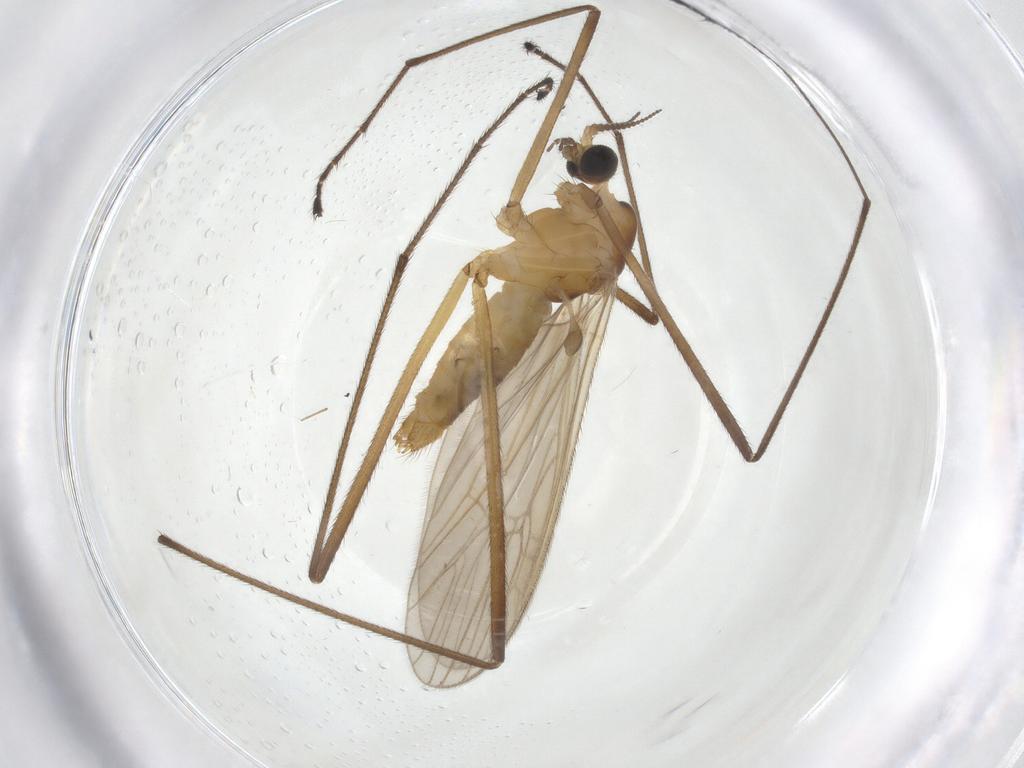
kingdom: Animalia
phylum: Arthropoda
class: Insecta
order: Diptera
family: Limoniidae
